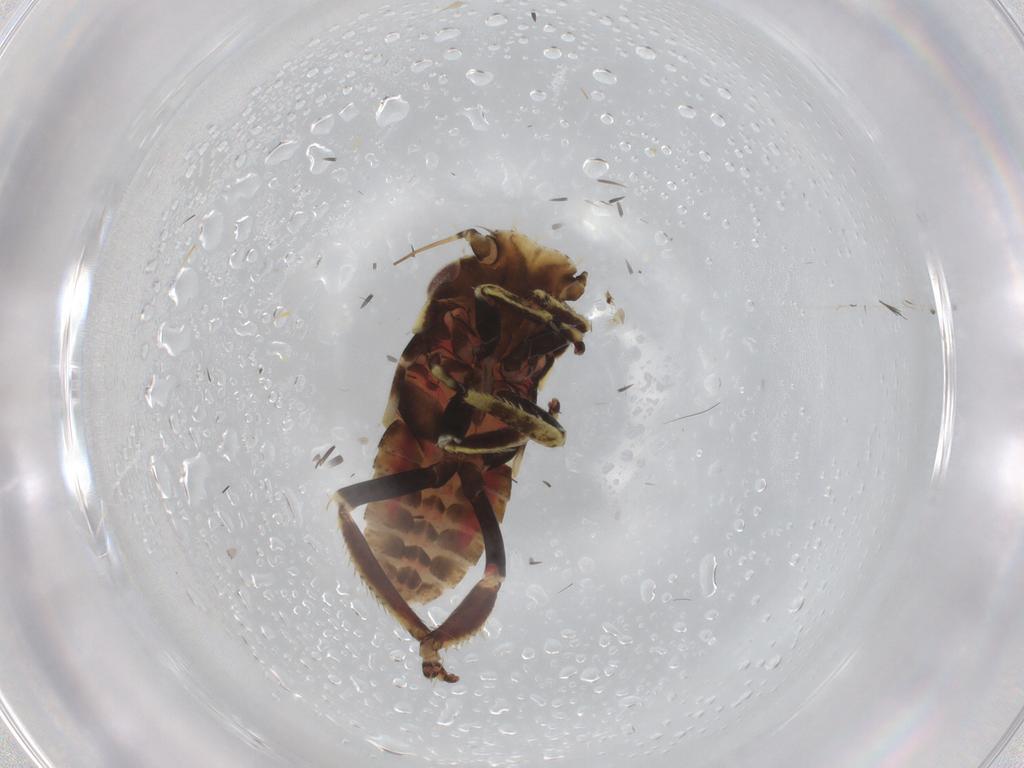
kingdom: Animalia
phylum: Arthropoda
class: Insecta
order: Hemiptera
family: Cicadellidae
